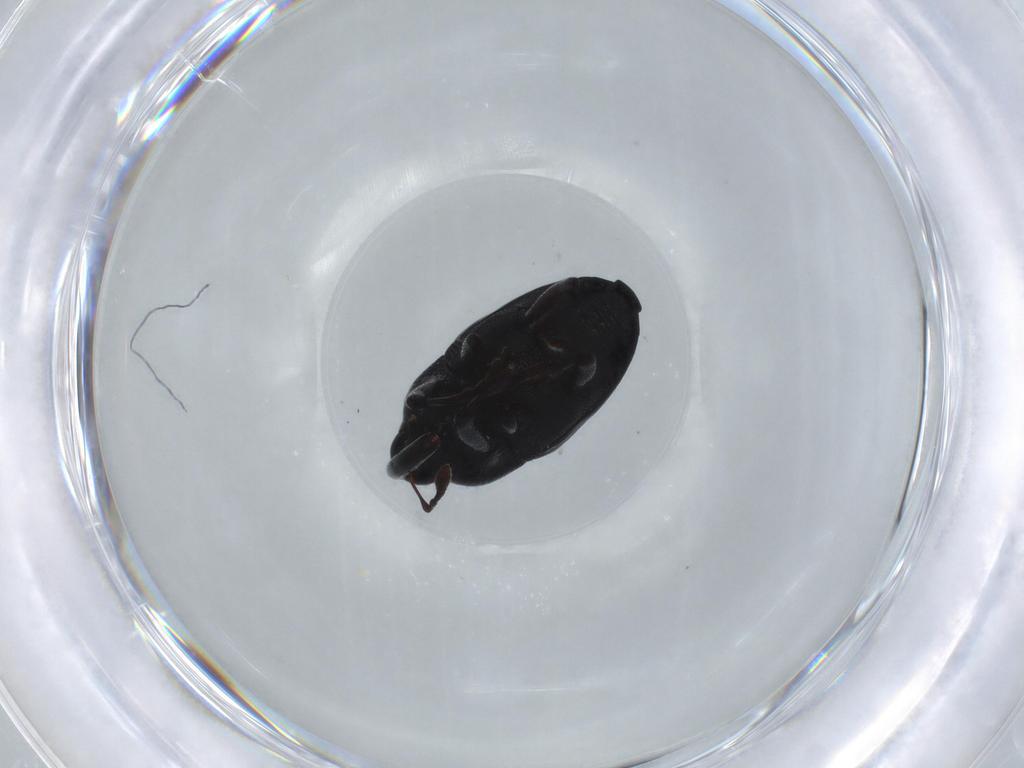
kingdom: Animalia
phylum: Arthropoda
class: Insecta
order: Coleoptera
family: Curculionidae
